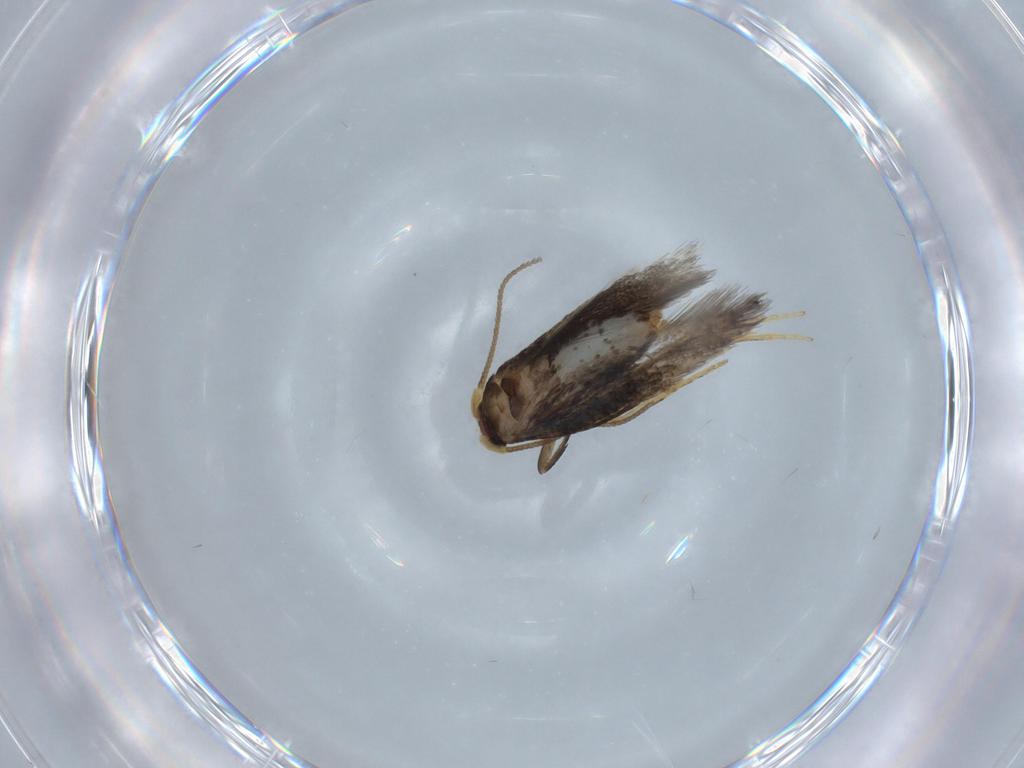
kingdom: Animalia
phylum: Arthropoda
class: Insecta
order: Lepidoptera
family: Nepticulidae
